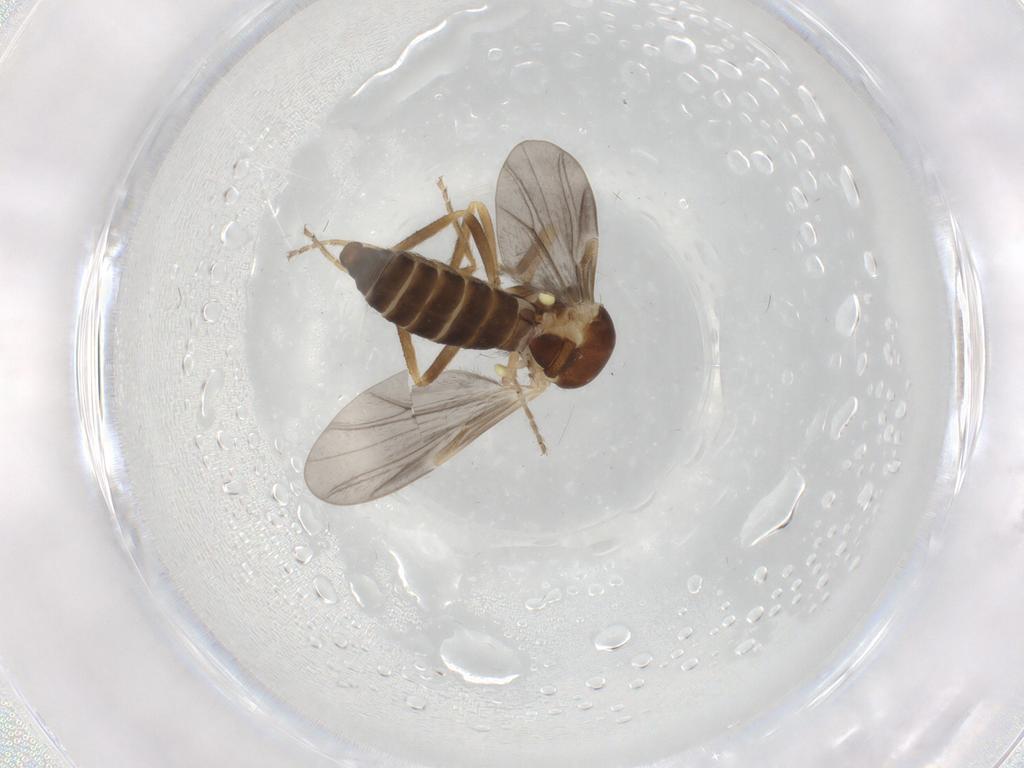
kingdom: Animalia
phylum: Arthropoda
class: Insecta
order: Diptera
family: Ceratopogonidae
